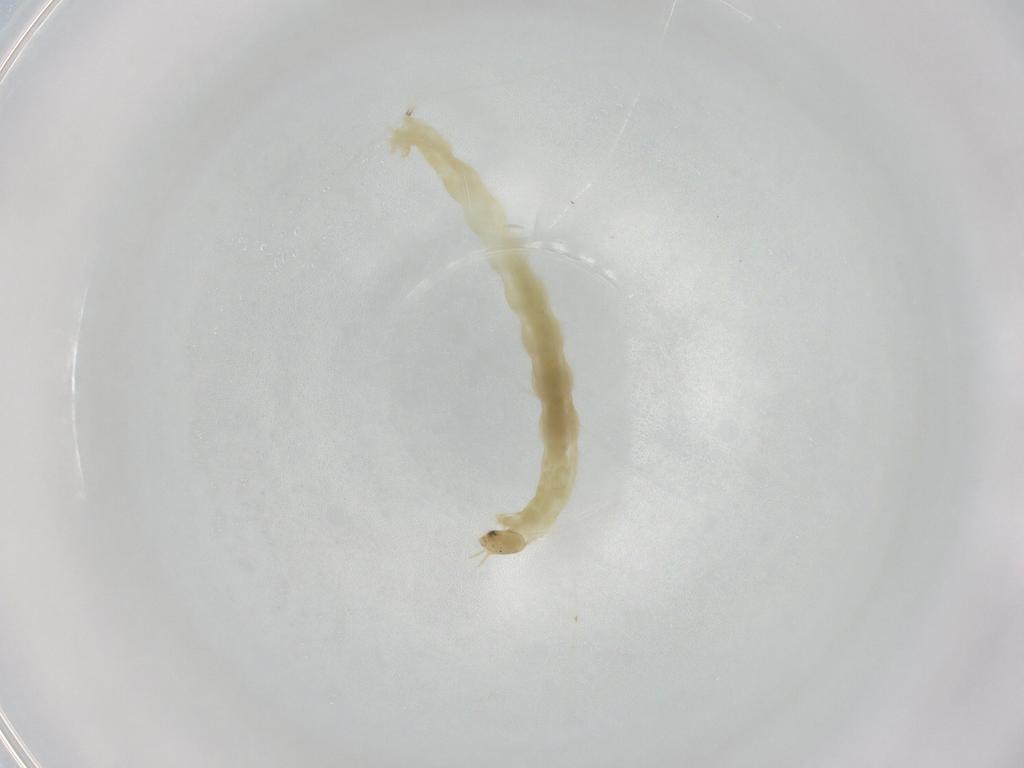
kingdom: Animalia
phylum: Arthropoda
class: Insecta
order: Diptera
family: Chironomidae
